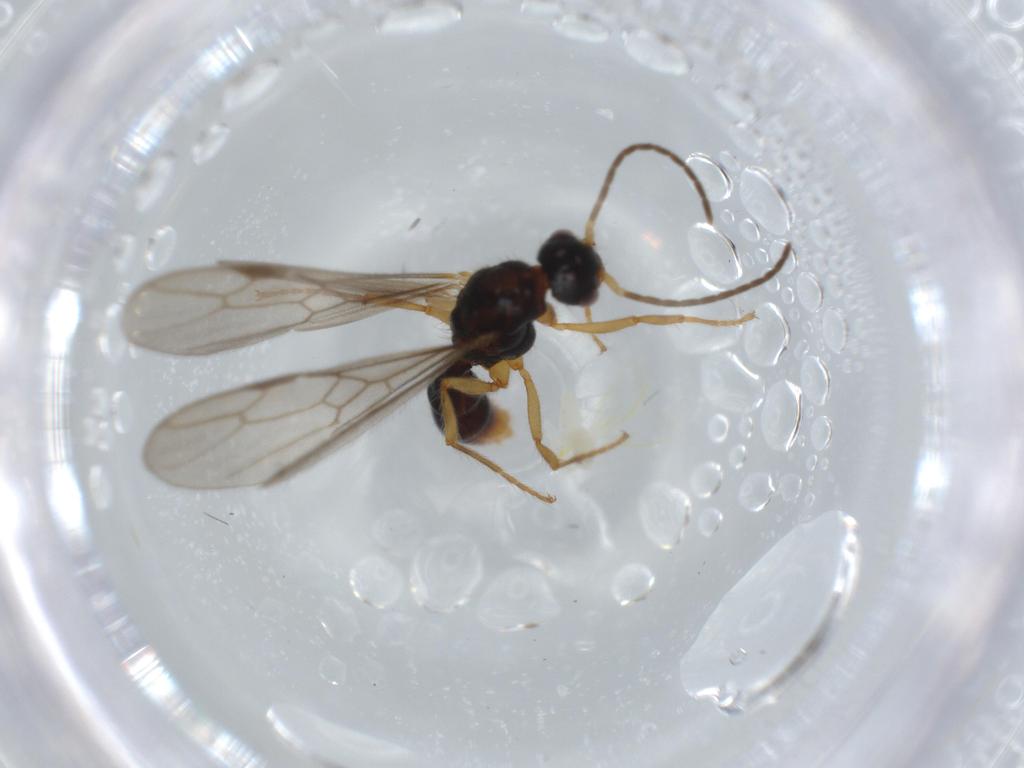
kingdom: Animalia
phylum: Arthropoda
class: Insecta
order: Hymenoptera
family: Formicidae
